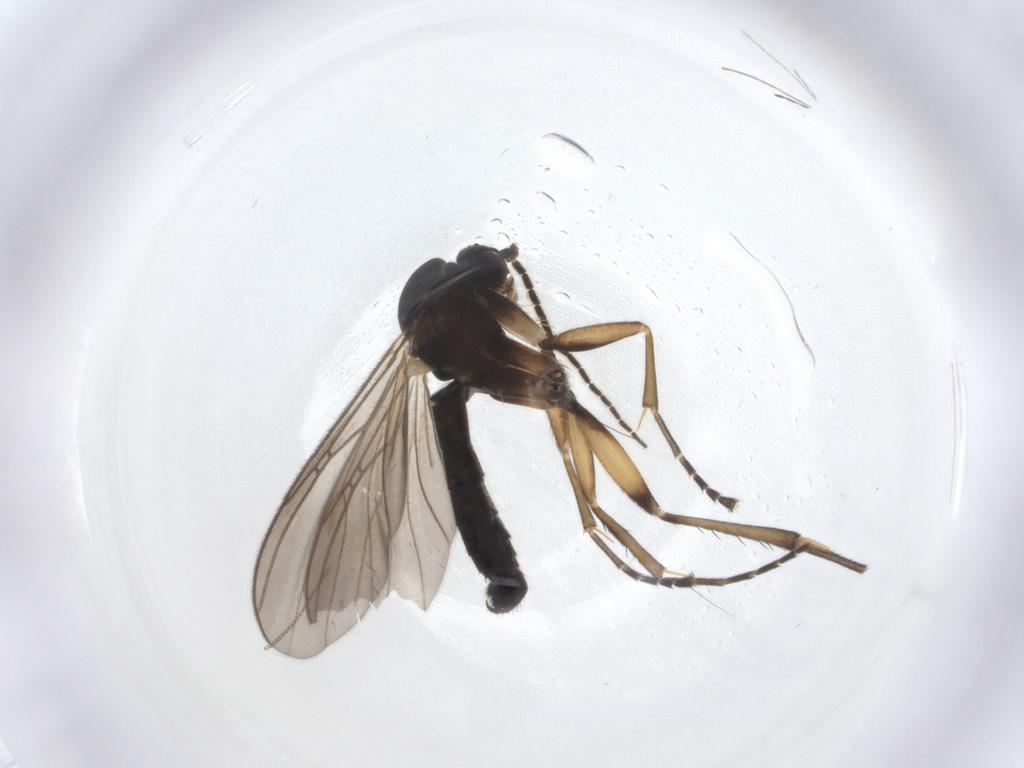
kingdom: Animalia
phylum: Arthropoda
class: Insecta
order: Diptera
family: Chironomidae
